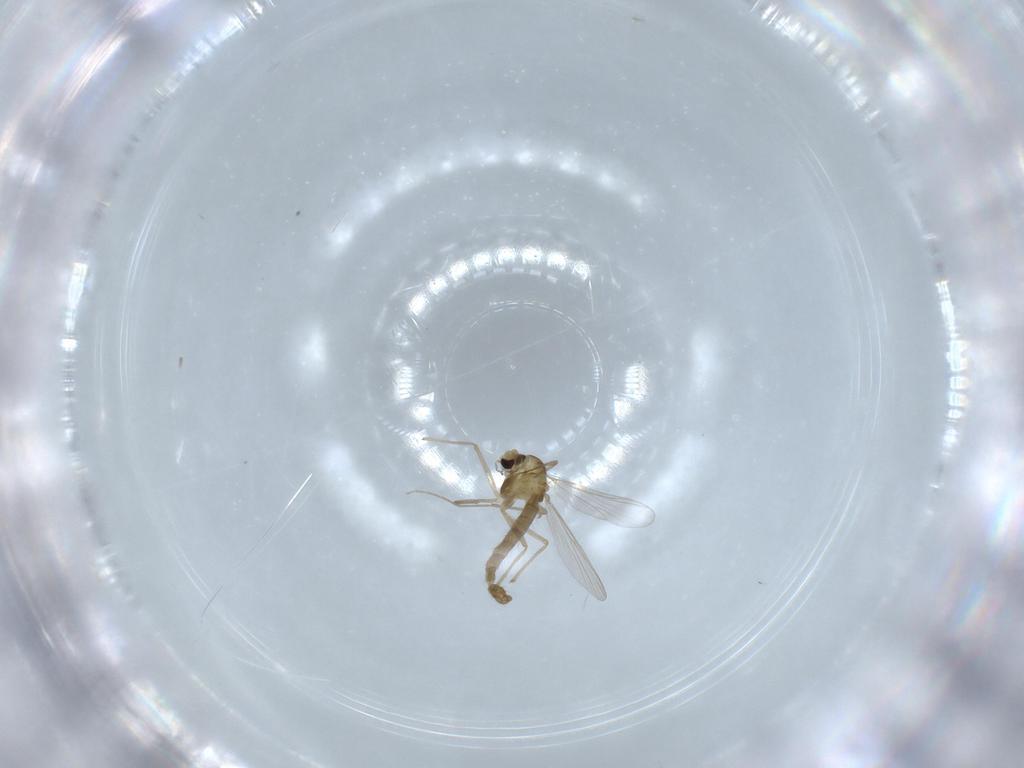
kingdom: Animalia
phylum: Arthropoda
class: Insecta
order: Diptera
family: Chironomidae
